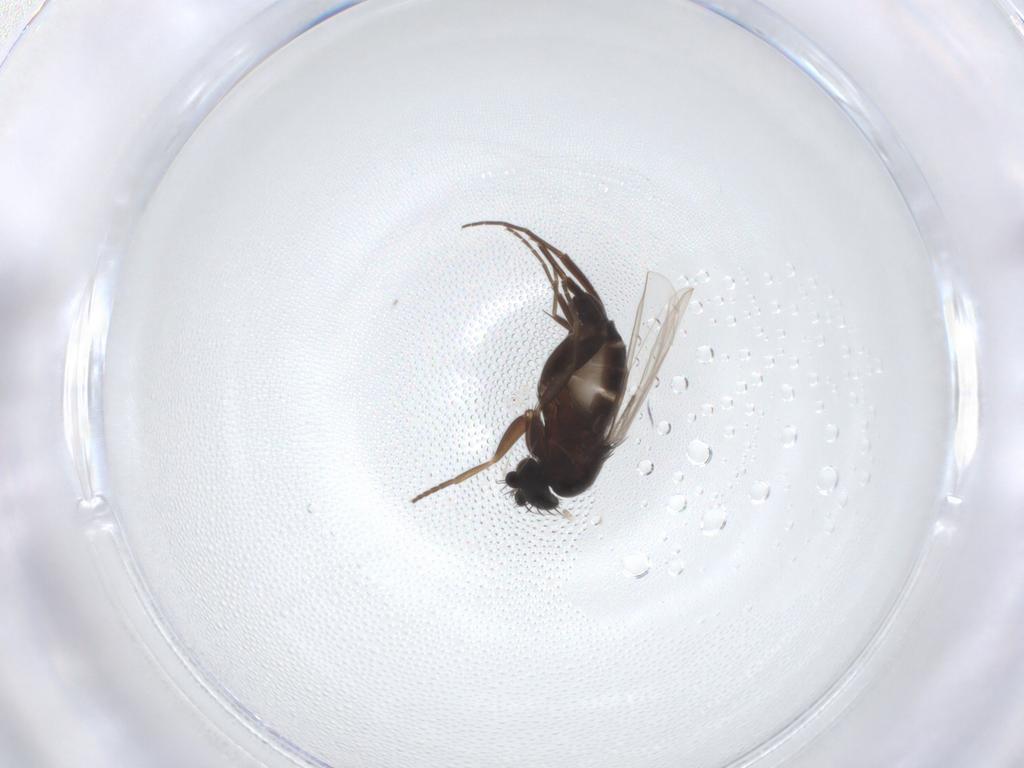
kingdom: Animalia
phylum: Arthropoda
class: Insecta
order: Diptera
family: Phoridae
